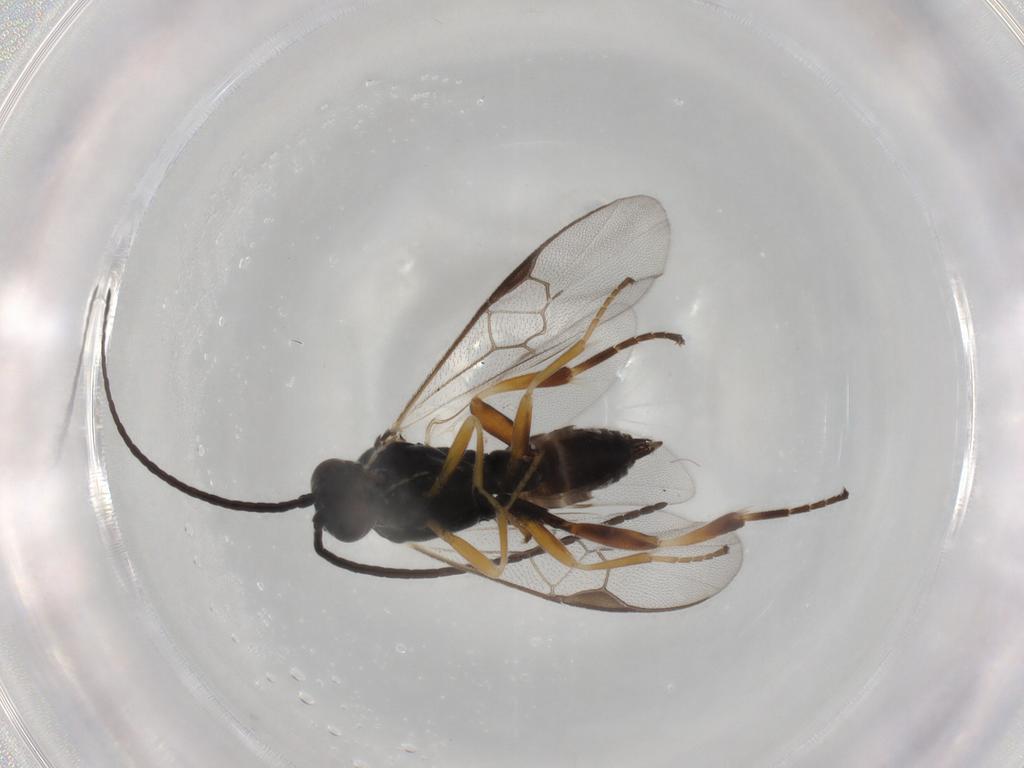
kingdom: Animalia
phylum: Arthropoda
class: Insecta
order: Hymenoptera
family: Braconidae
